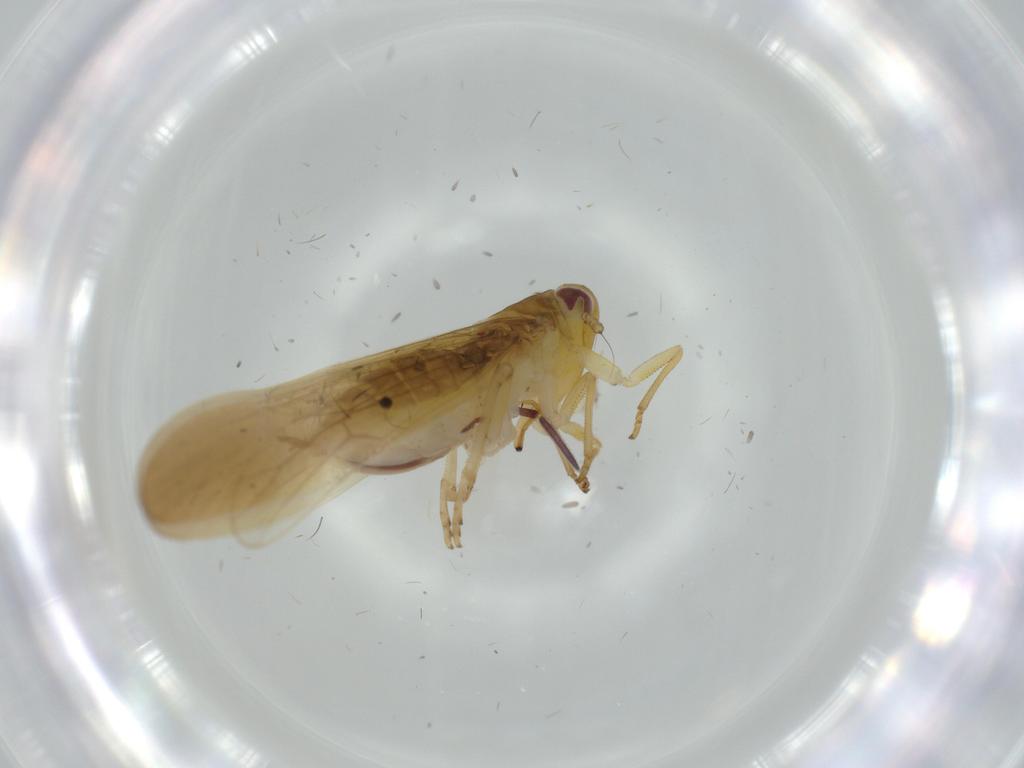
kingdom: Animalia
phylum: Arthropoda
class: Insecta
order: Hemiptera
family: Delphacidae
